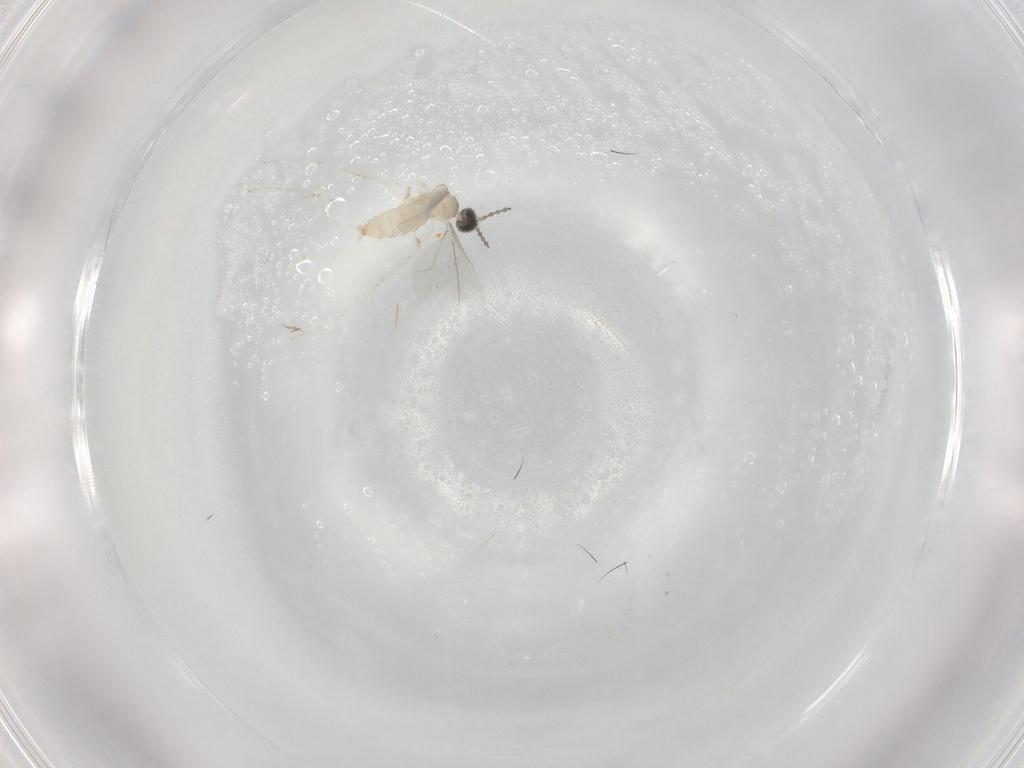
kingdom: Animalia
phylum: Arthropoda
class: Insecta
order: Diptera
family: Cecidomyiidae
